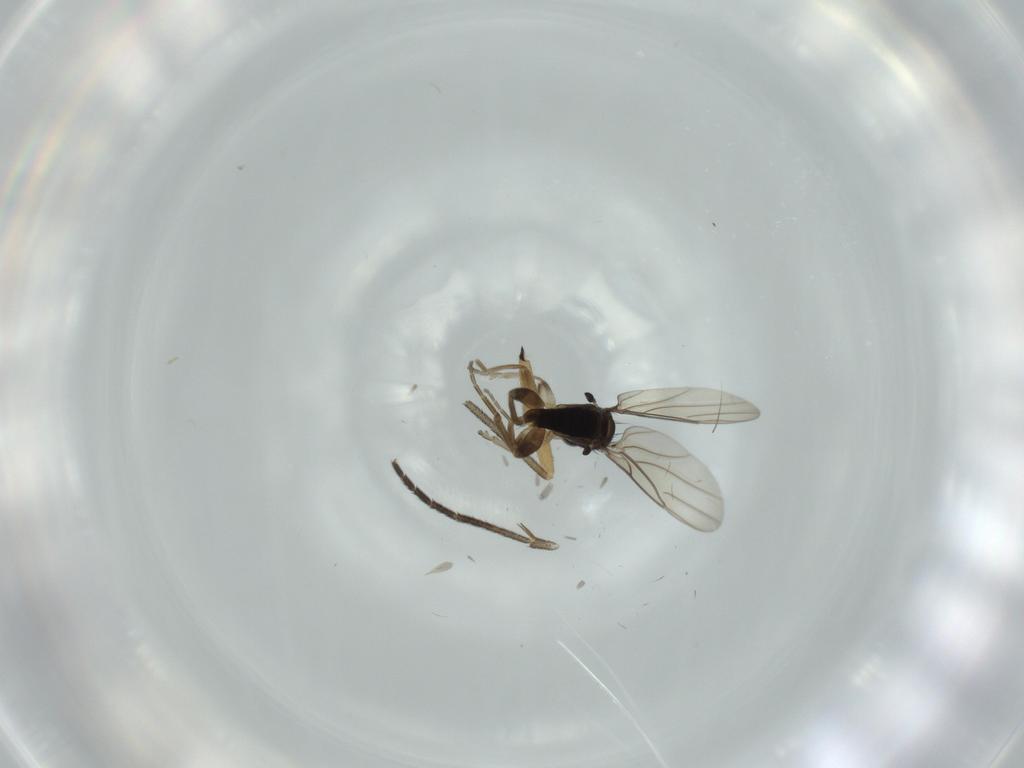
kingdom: Animalia
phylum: Arthropoda
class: Insecta
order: Diptera
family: Phoridae
